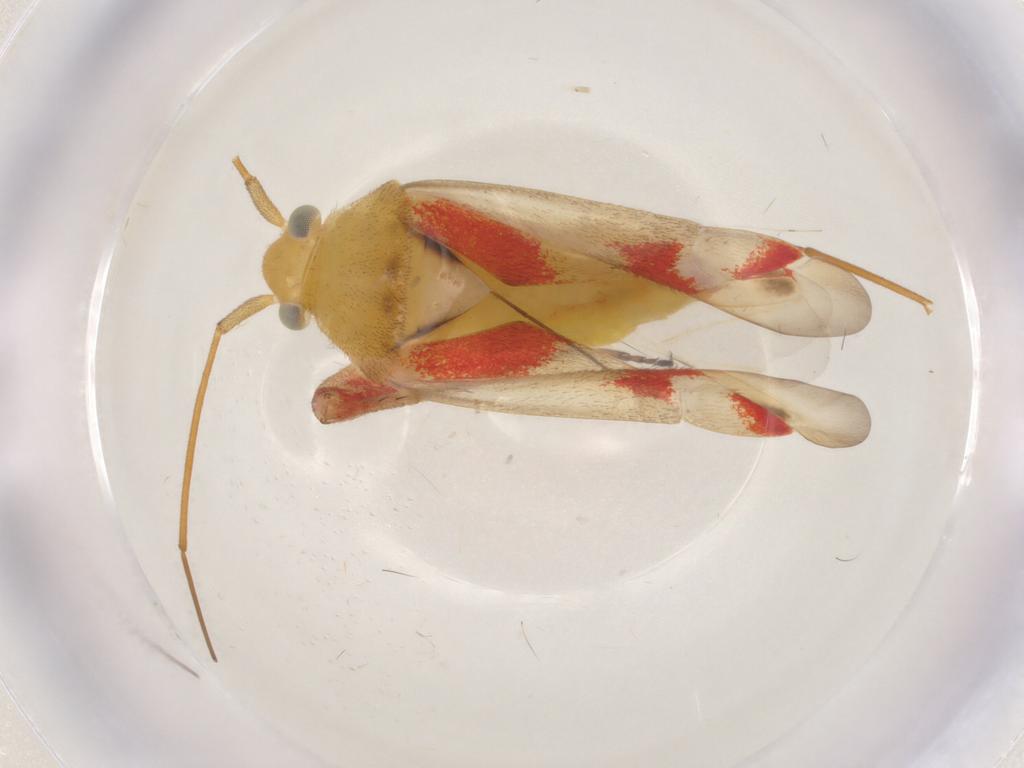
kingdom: Animalia
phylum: Arthropoda
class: Insecta
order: Hemiptera
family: Miridae
